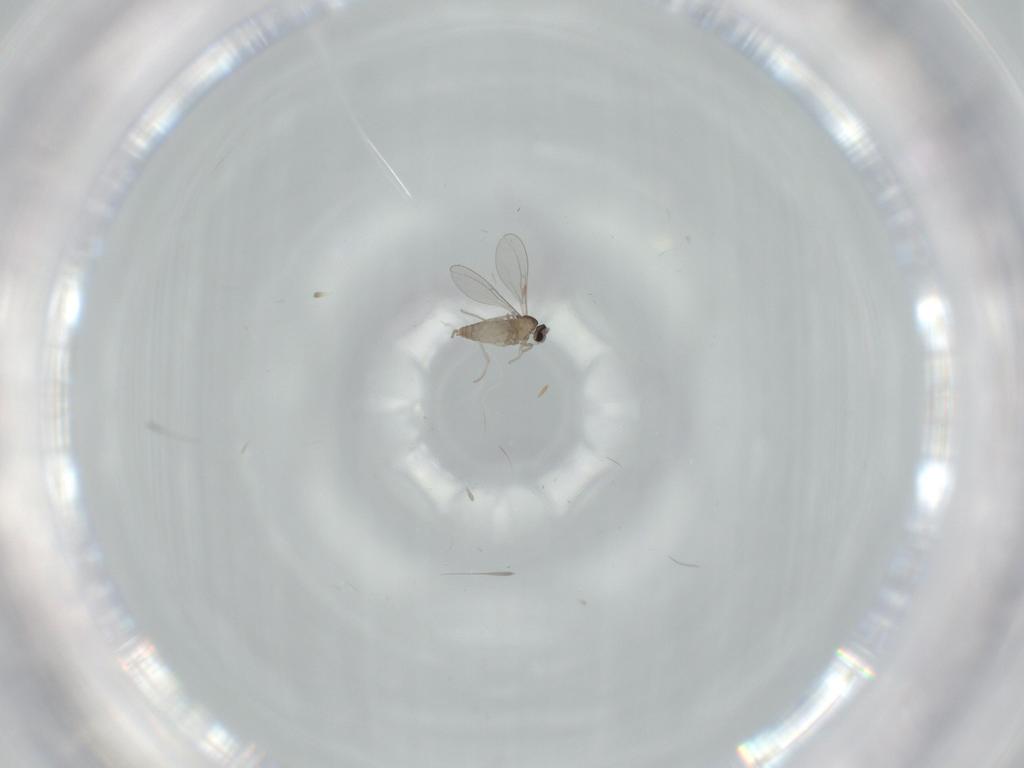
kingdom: Animalia
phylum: Arthropoda
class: Insecta
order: Diptera
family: Cecidomyiidae
